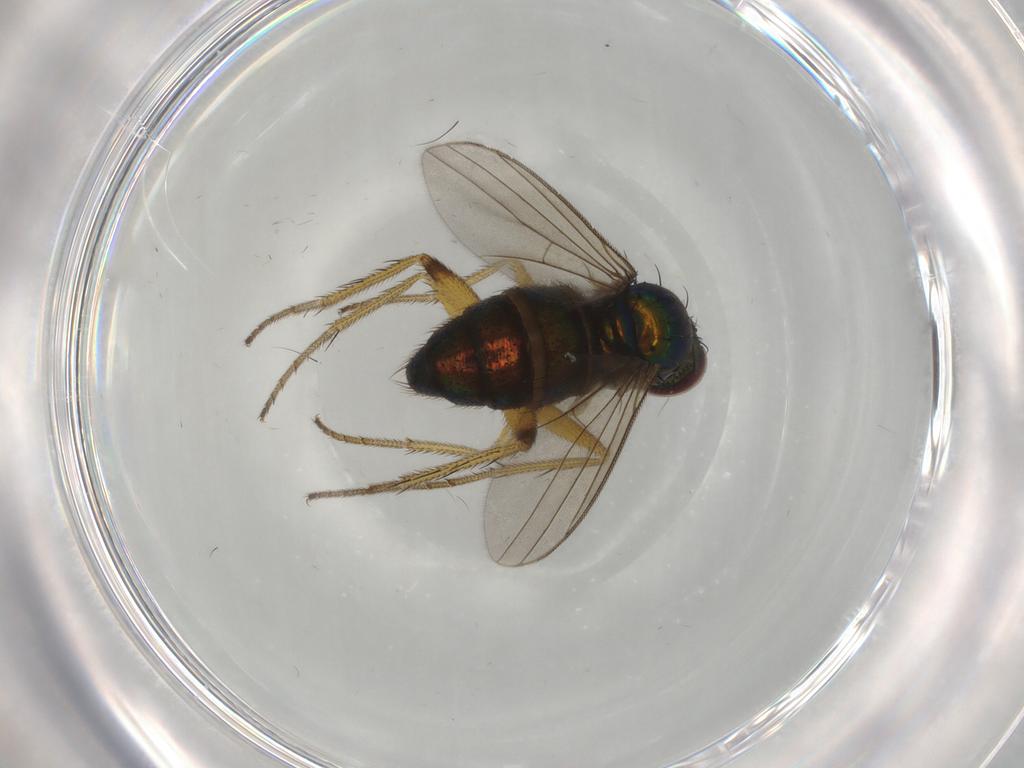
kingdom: Animalia
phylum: Arthropoda
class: Insecta
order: Diptera
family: Dolichopodidae
